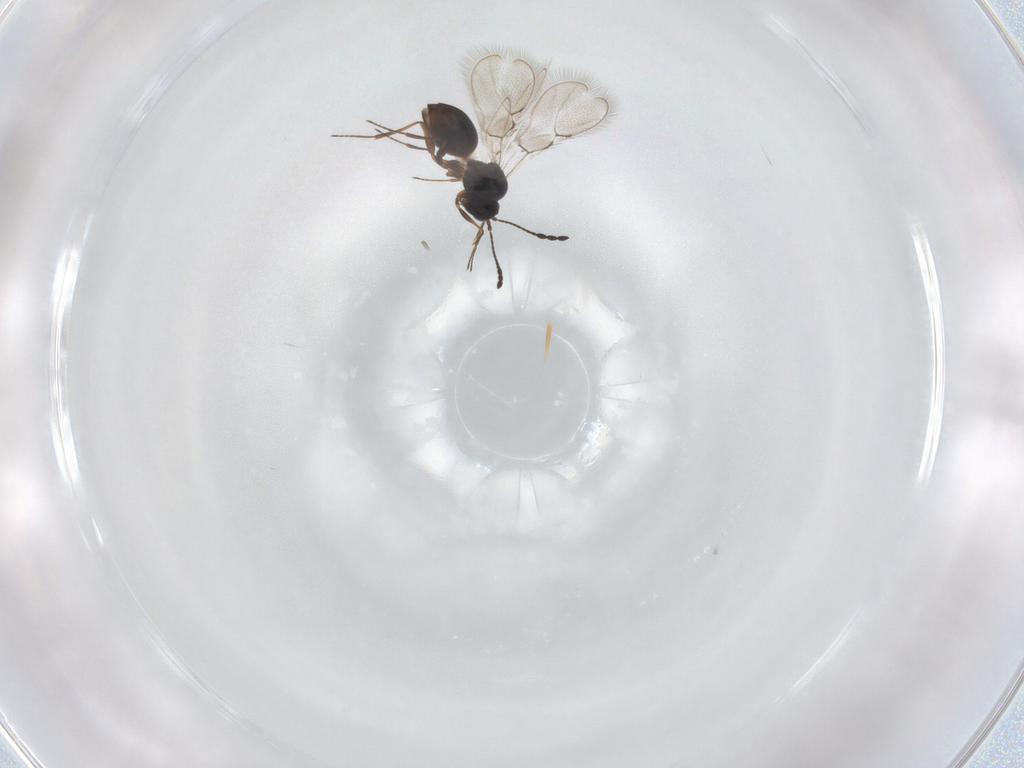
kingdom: Animalia
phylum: Arthropoda
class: Insecta
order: Hymenoptera
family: Figitidae
